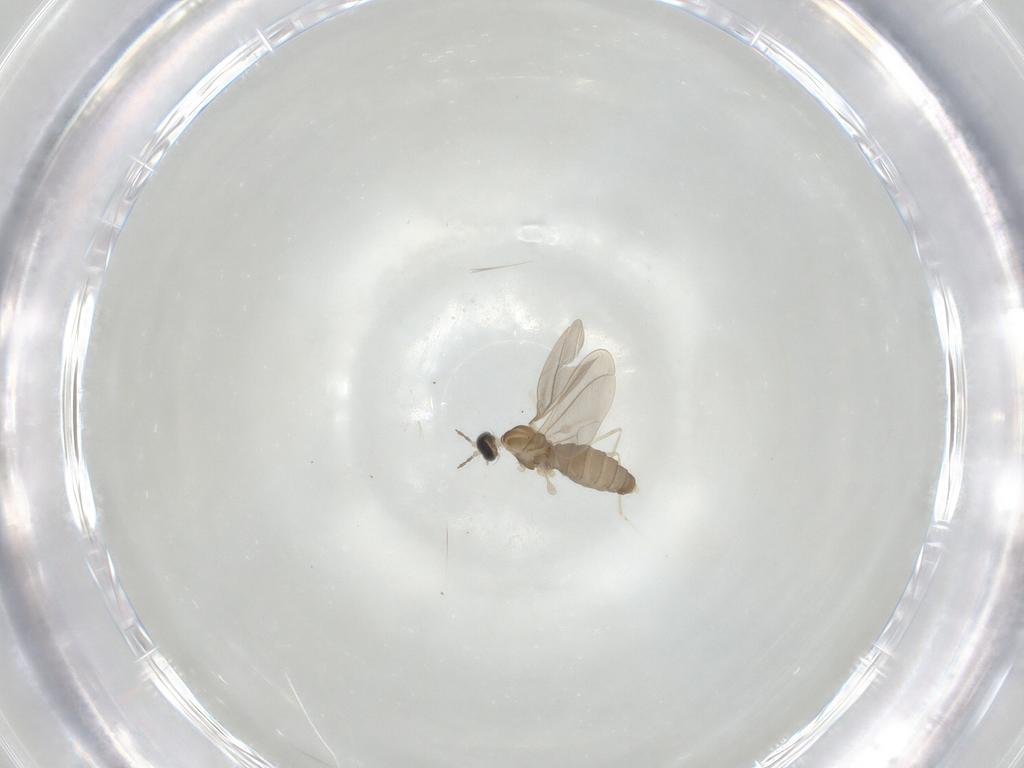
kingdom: Animalia
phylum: Arthropoda
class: Insecta
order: Diptera
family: Cecidomyiidae
